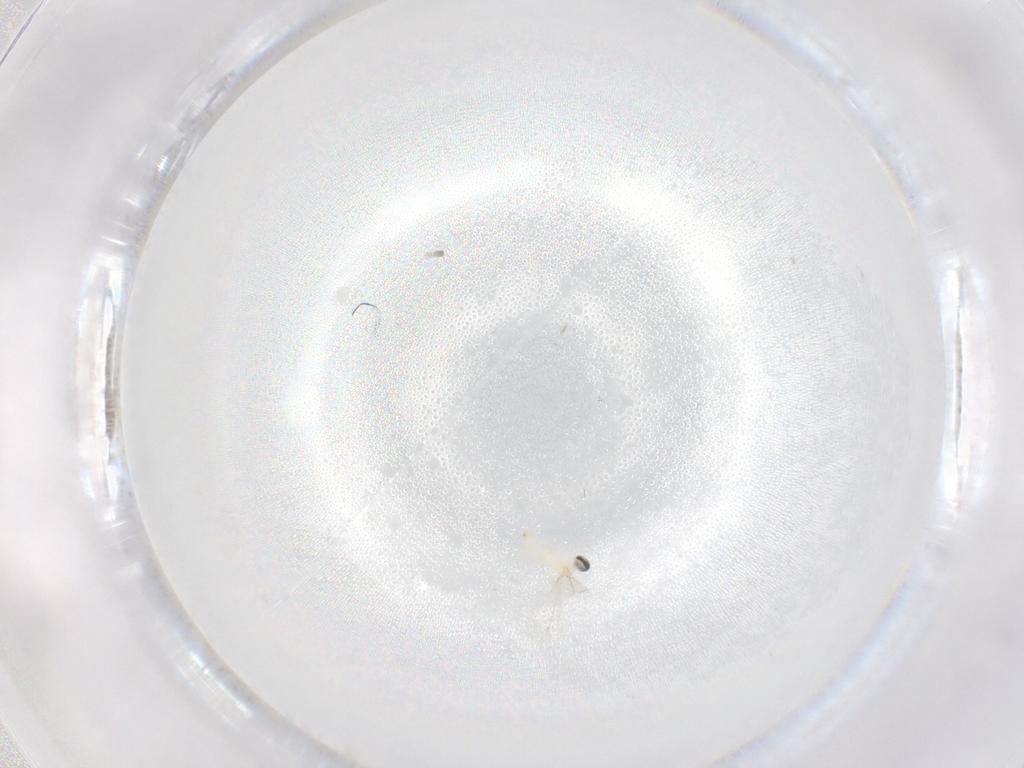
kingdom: Animalia
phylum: Arthropoda
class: Insecta
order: Diptera
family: Cecidomyiidae
